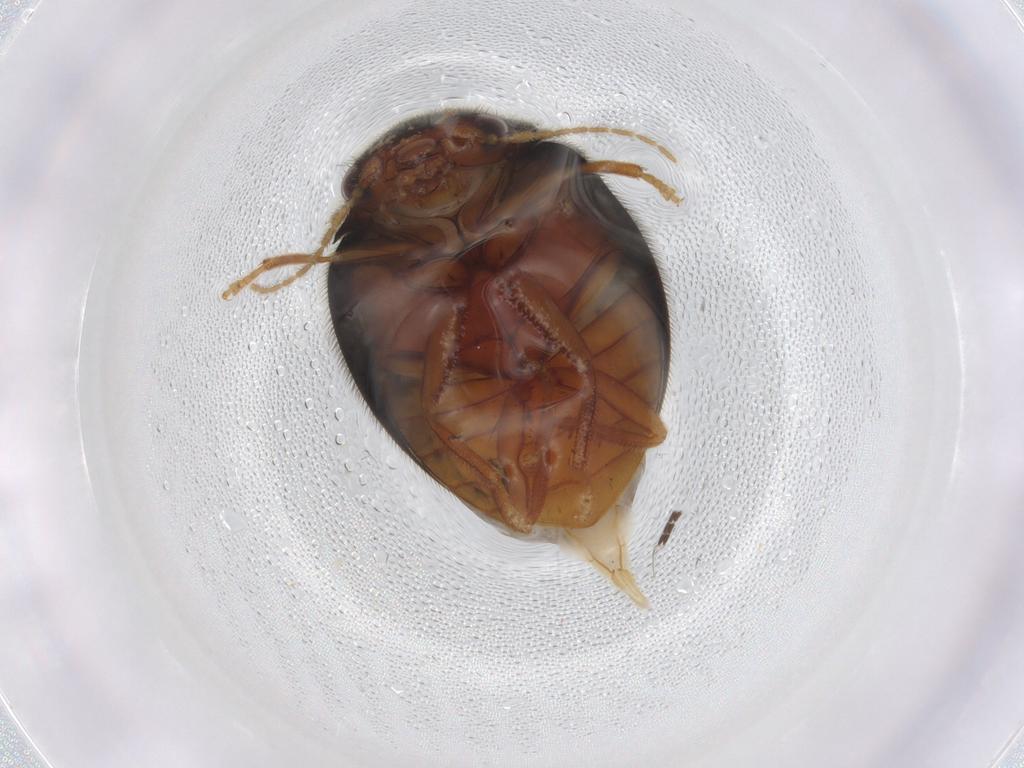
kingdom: Animalia
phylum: Arthropoda
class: Insecta
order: Coleoptera
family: Scirtidae
